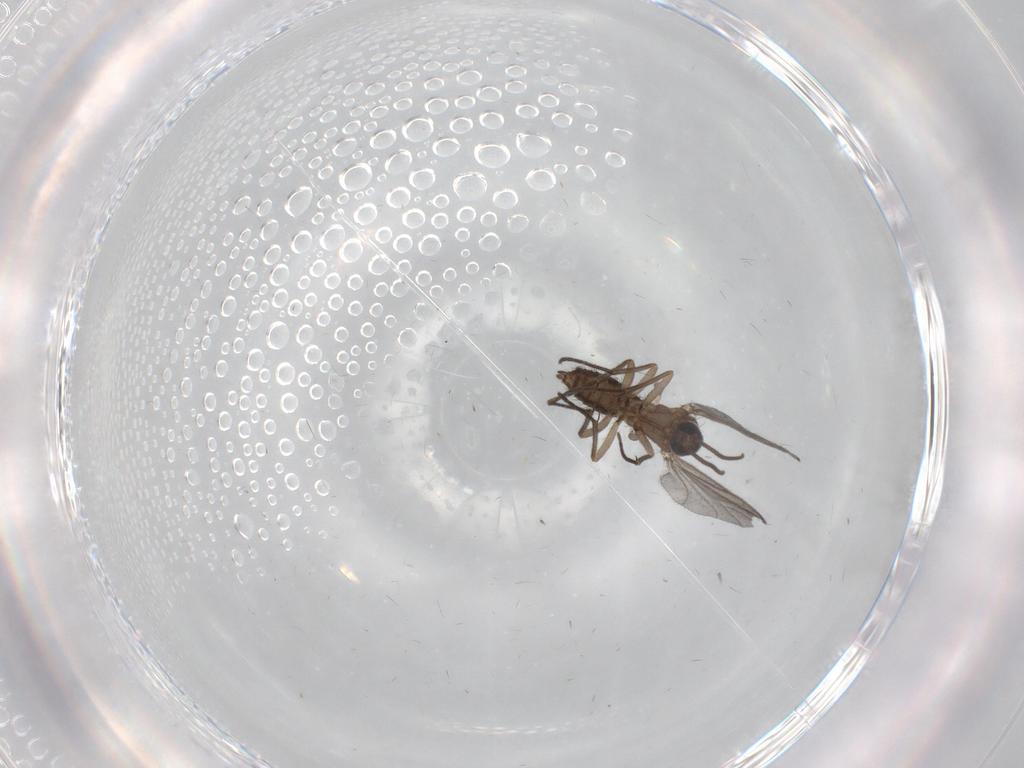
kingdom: Animalia
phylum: Arthropoda
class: Insecta
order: Diptera
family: Sciaridae
